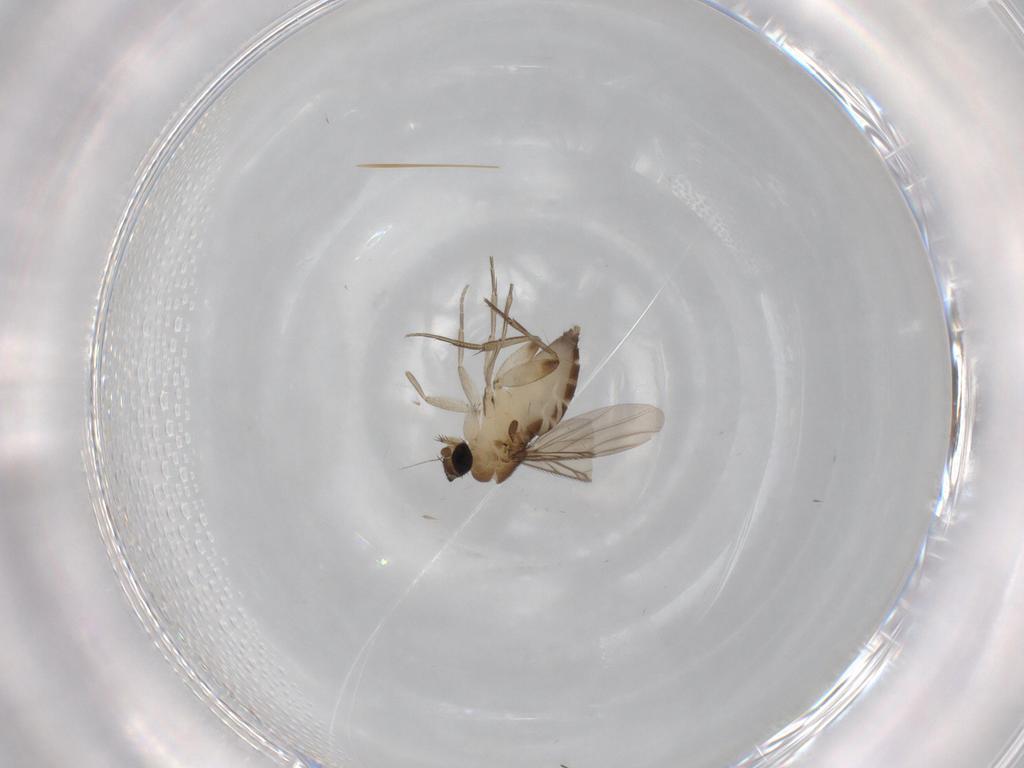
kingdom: Animalia
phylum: Arthropoda
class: Insecta
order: Diptera
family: Phoridae
